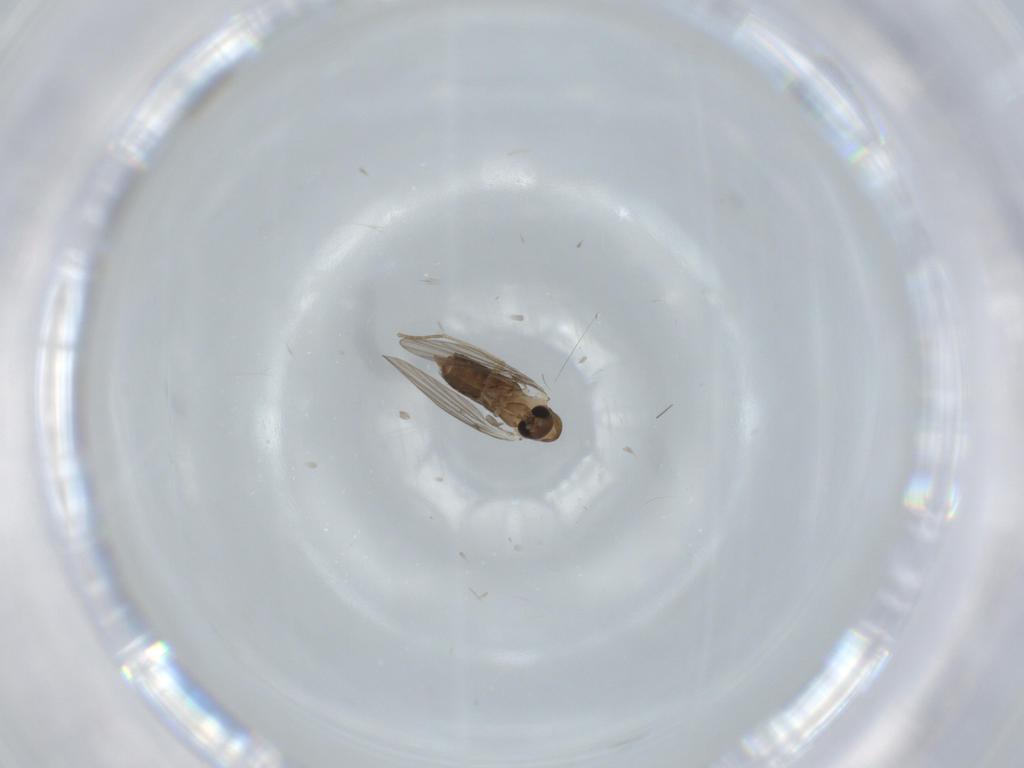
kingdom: Animalia
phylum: Arthropoda
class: Insecta
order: Diptera
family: Tabanidae
